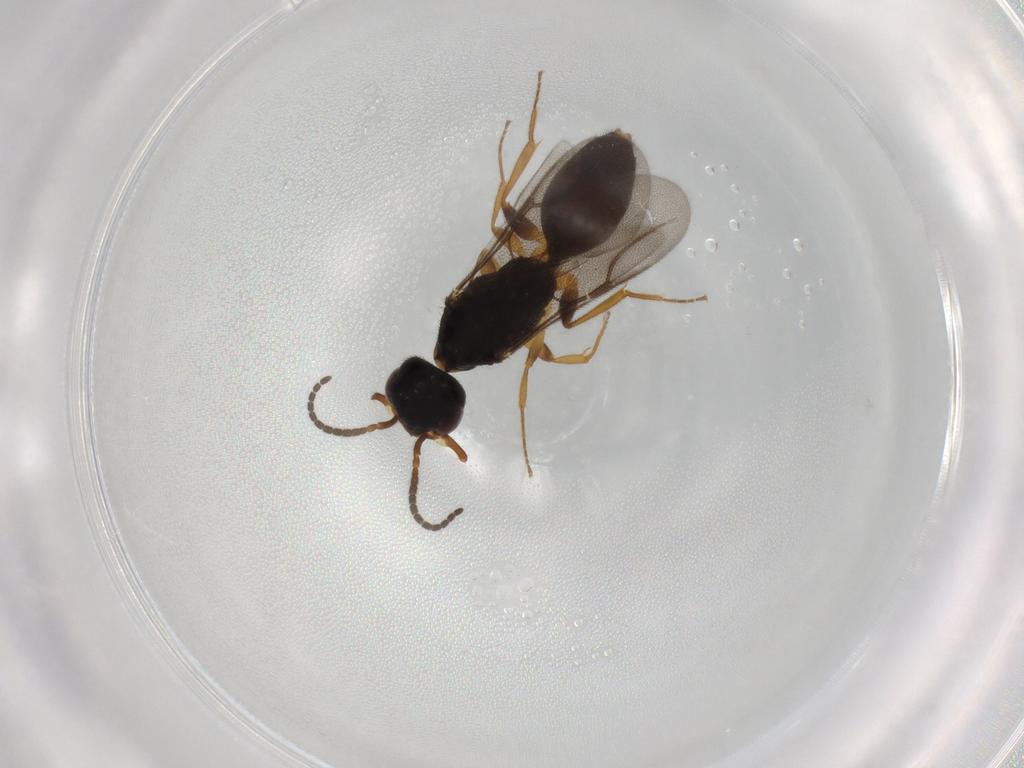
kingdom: Animalia
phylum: Arthropoda
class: Insecta
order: Hymenoptera
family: Bethylidae
